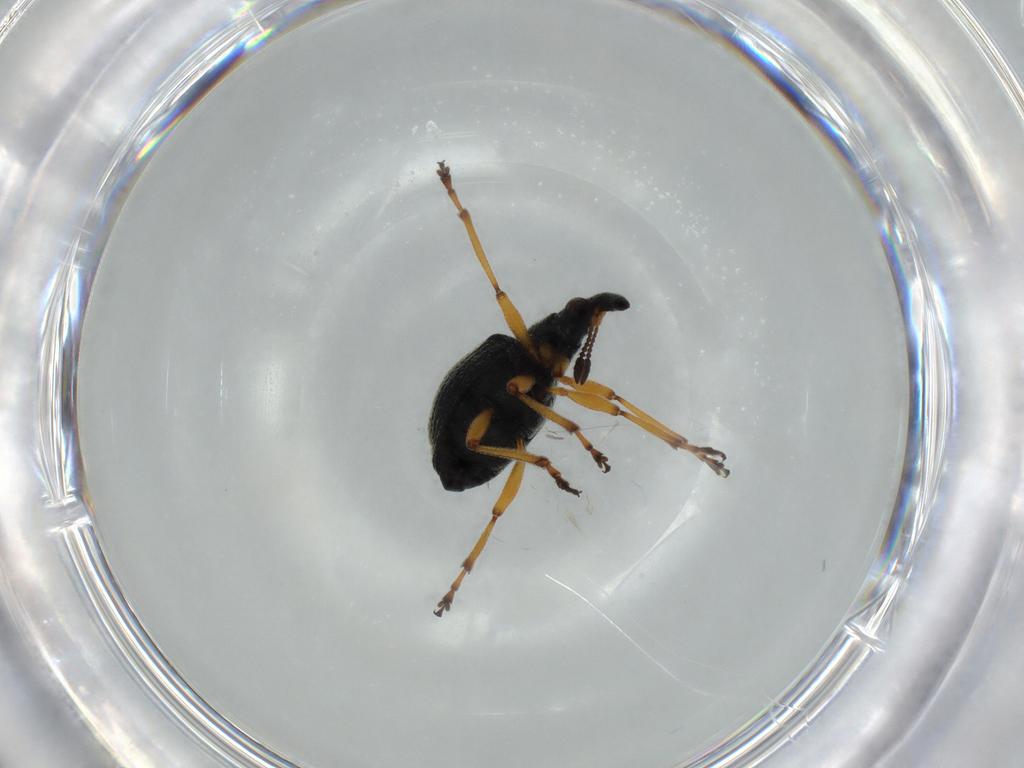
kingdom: Animalia
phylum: Arthropoda
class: Insecta
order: Coleoptera
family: Brentidae
